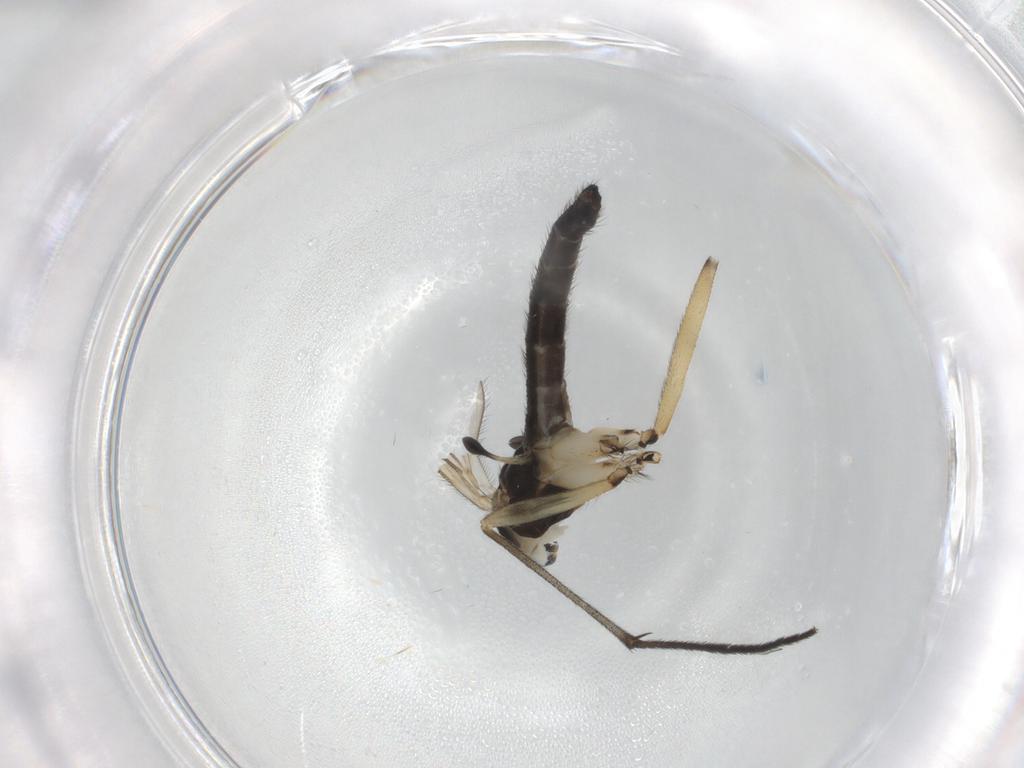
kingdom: Animalia
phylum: Arthropoda
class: Insecta
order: Diptera
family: Sciaridae
